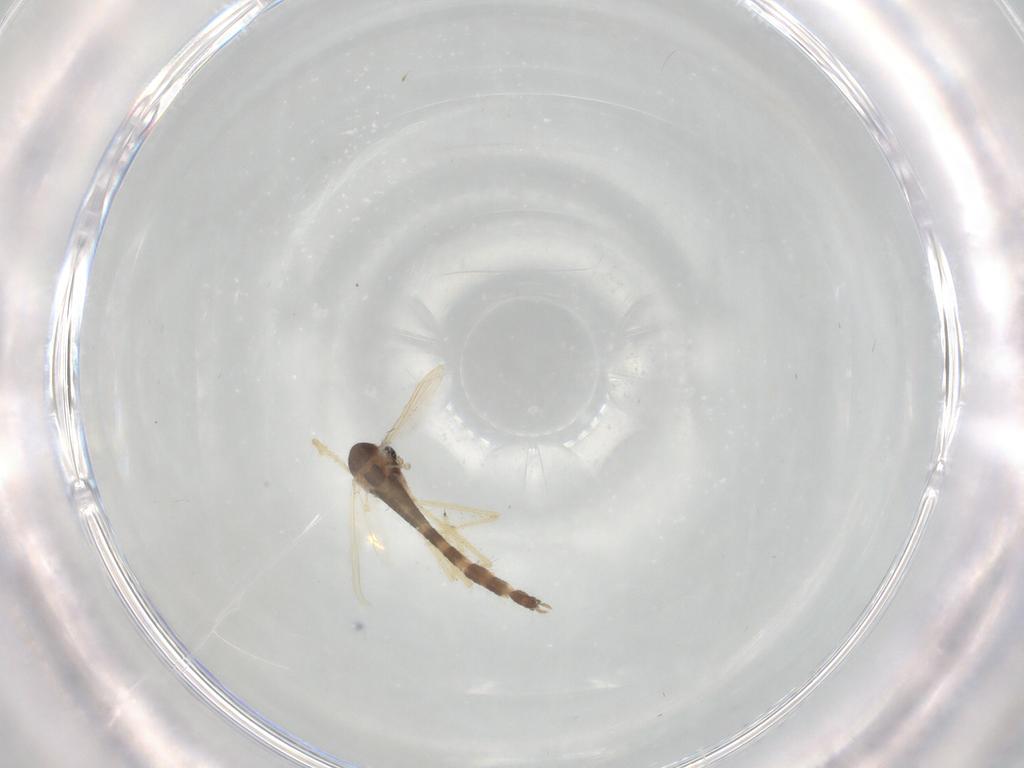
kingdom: Animalia
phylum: Arthropoda
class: Insecta
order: Diptera
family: Chironomidae
